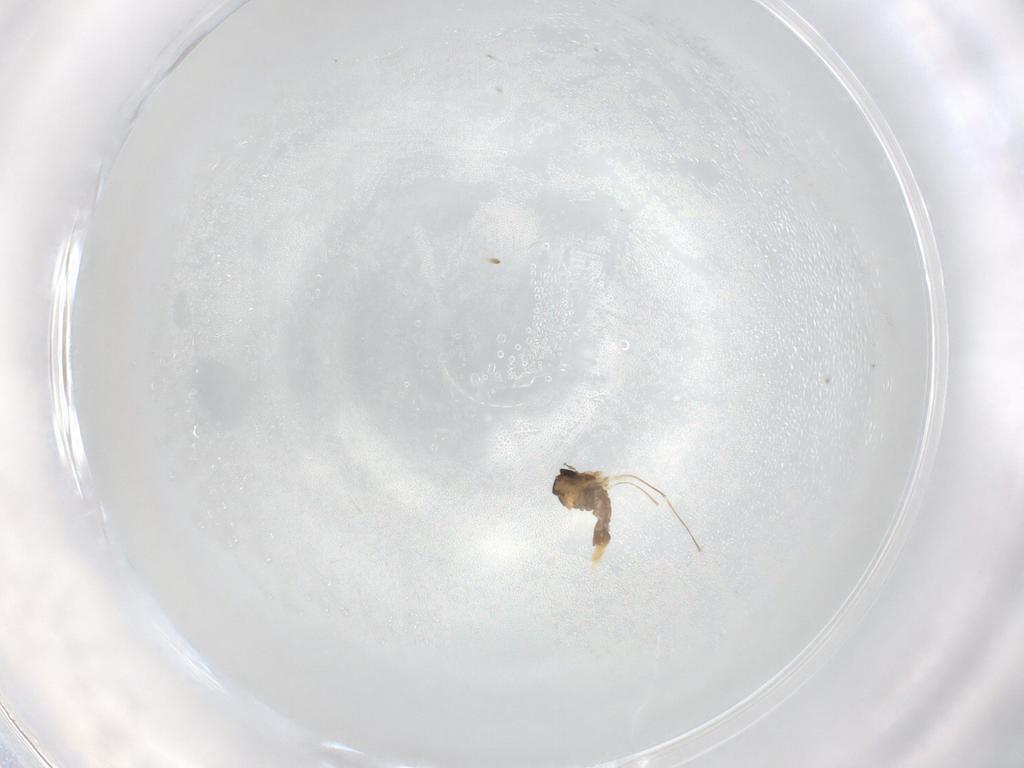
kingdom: Animalia
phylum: Arthropoda
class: Insecta
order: Diptera
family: Cecidomyiidae
